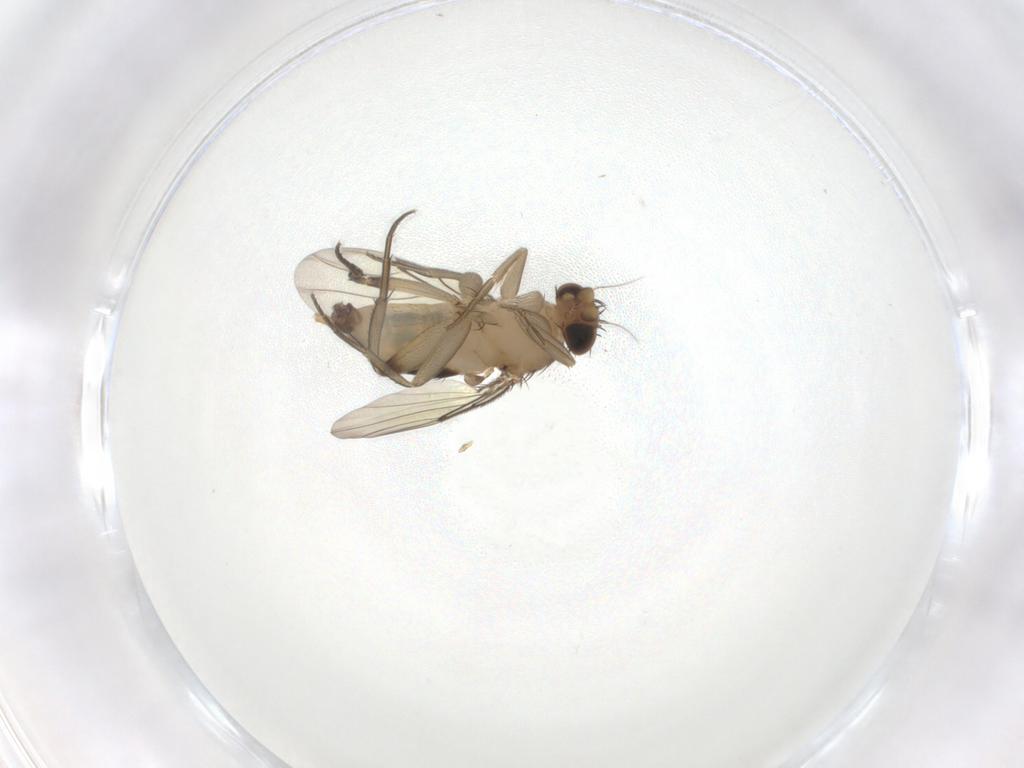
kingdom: Animalia
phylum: Arthropoda
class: Insecta
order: Diptera
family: Phoridae
